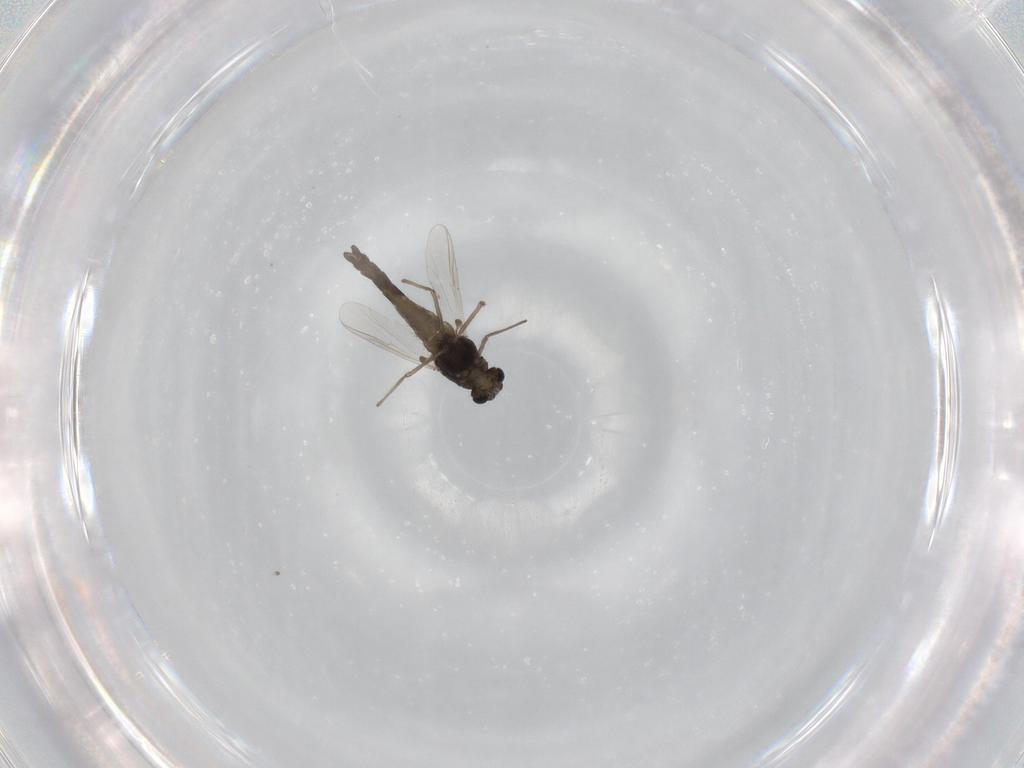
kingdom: Animalia
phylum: Arthropoda
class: Insecta
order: Diptera
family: Chironomidae
